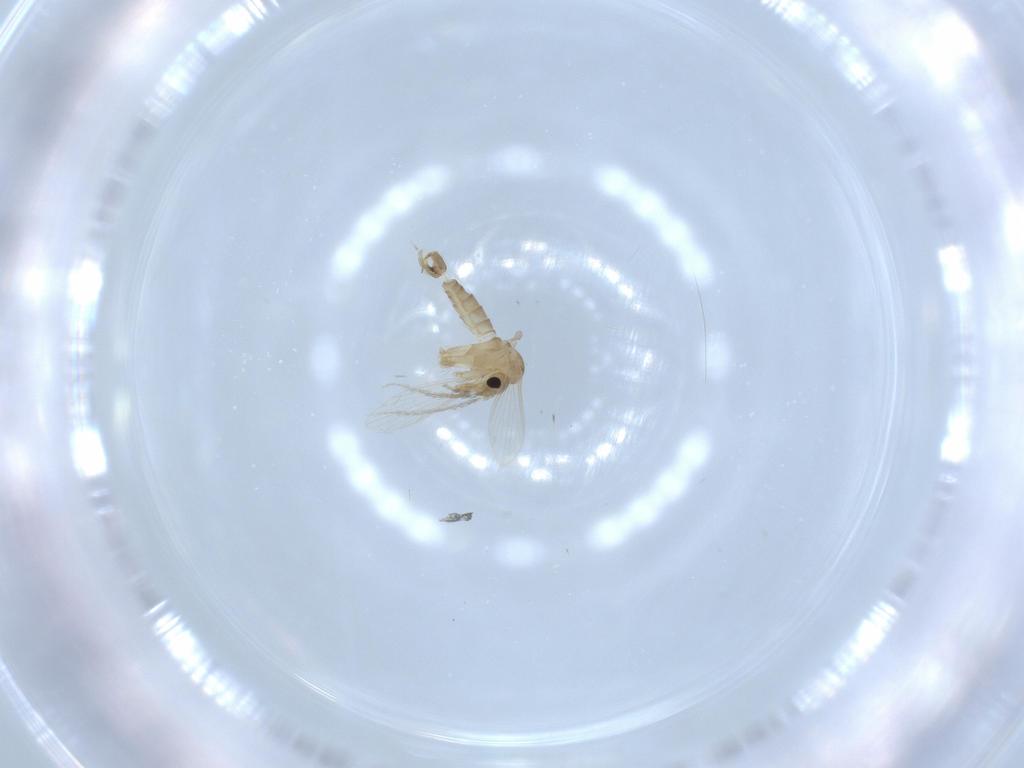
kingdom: Animalia
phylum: Arthropoda
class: Insecta
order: Diptera
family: Psychodidae
